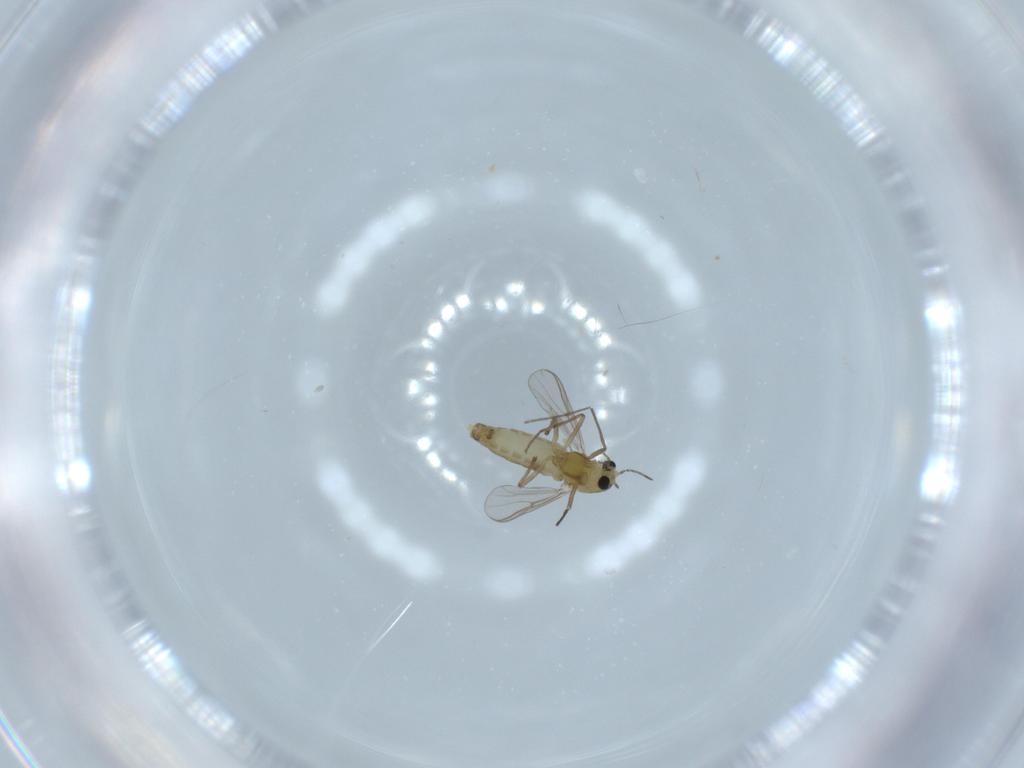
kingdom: Animalia
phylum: Arthropoda
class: Insecta
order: Diptera
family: Chironomidae
